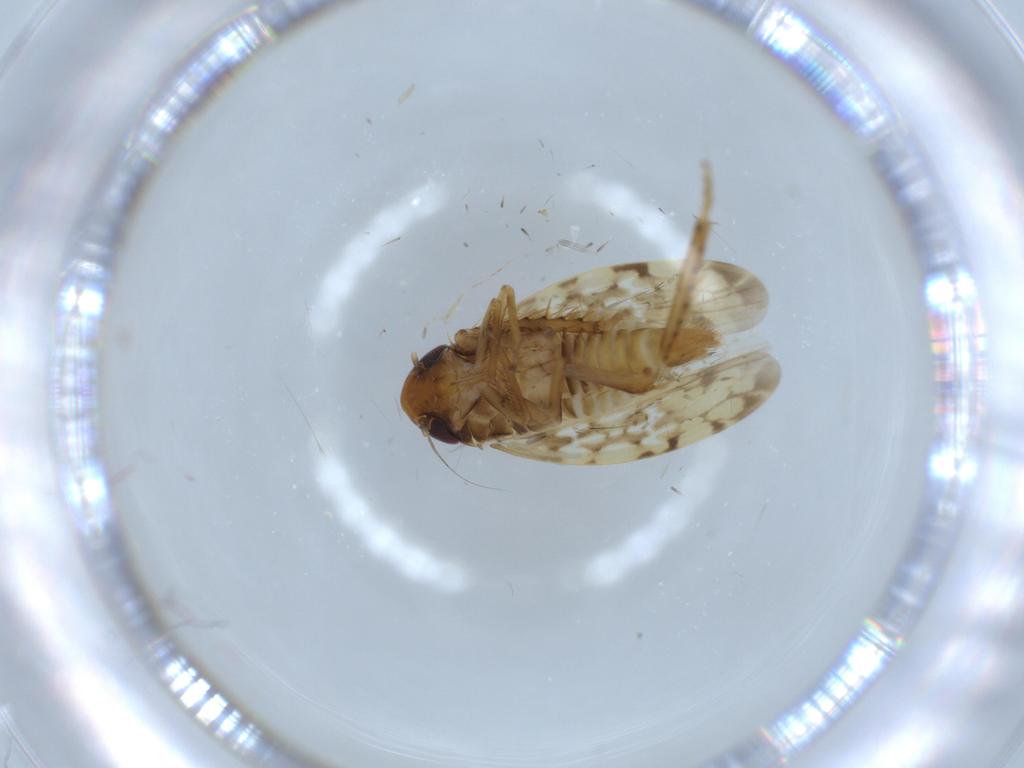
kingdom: Animalia
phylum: Arthropoda
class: Insecta
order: Hemiptera
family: Cicadellidae
